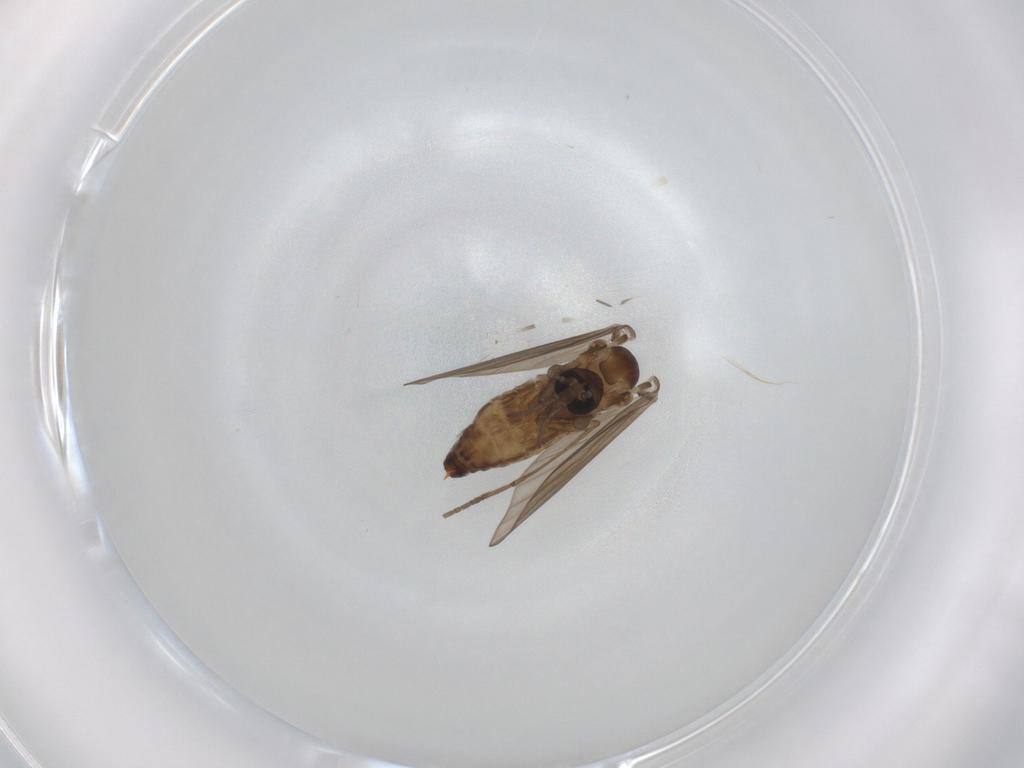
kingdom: Animalia
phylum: Arthropoda
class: Insecta
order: Diptera
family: Psychodidae
